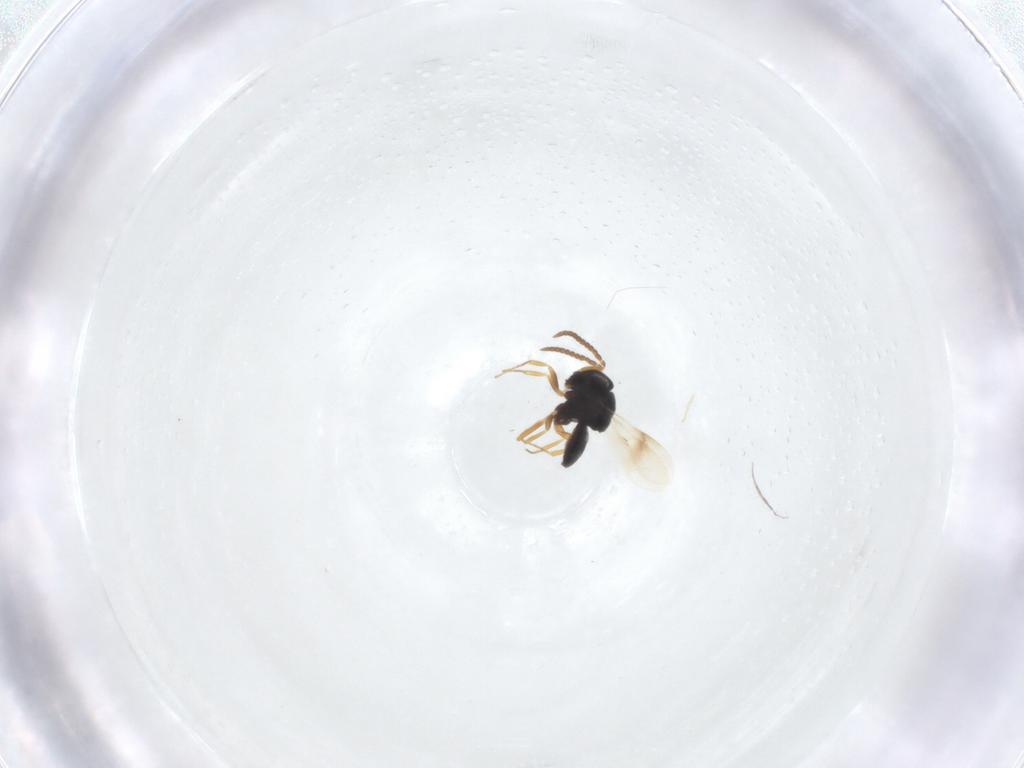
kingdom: Animalia
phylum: Arthropoda
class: Insecta
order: Hymenoptera
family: Scelionidae
